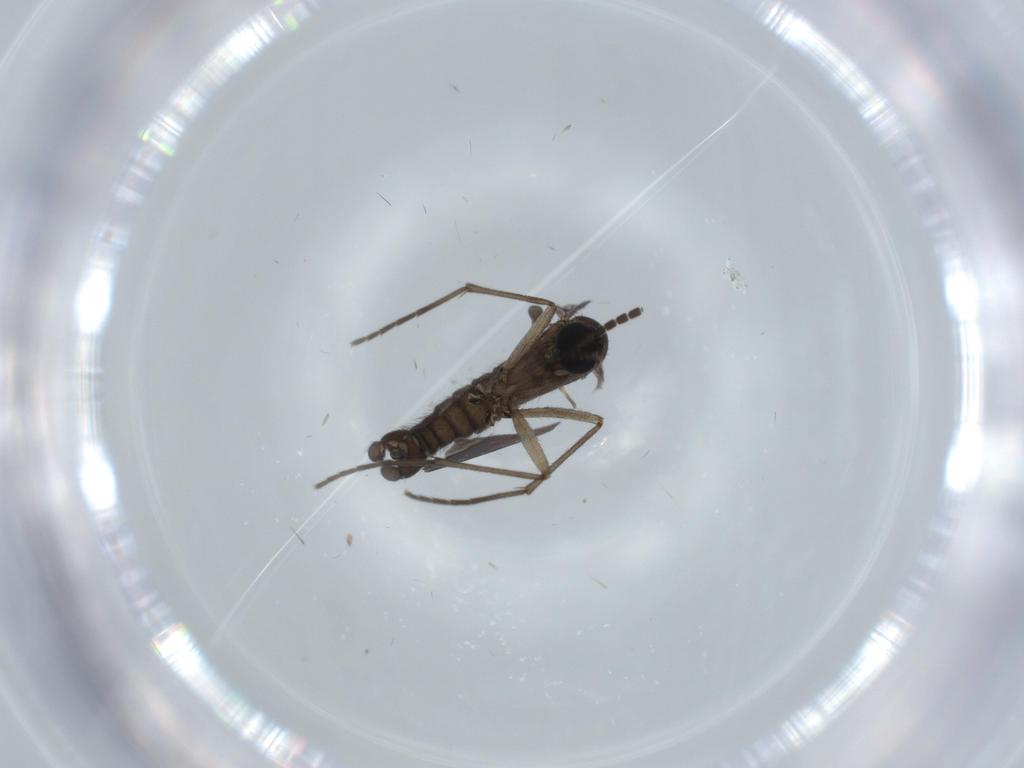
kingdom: Animalia
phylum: Arthropoda
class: Insecta
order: Diptera
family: Sciaridae
